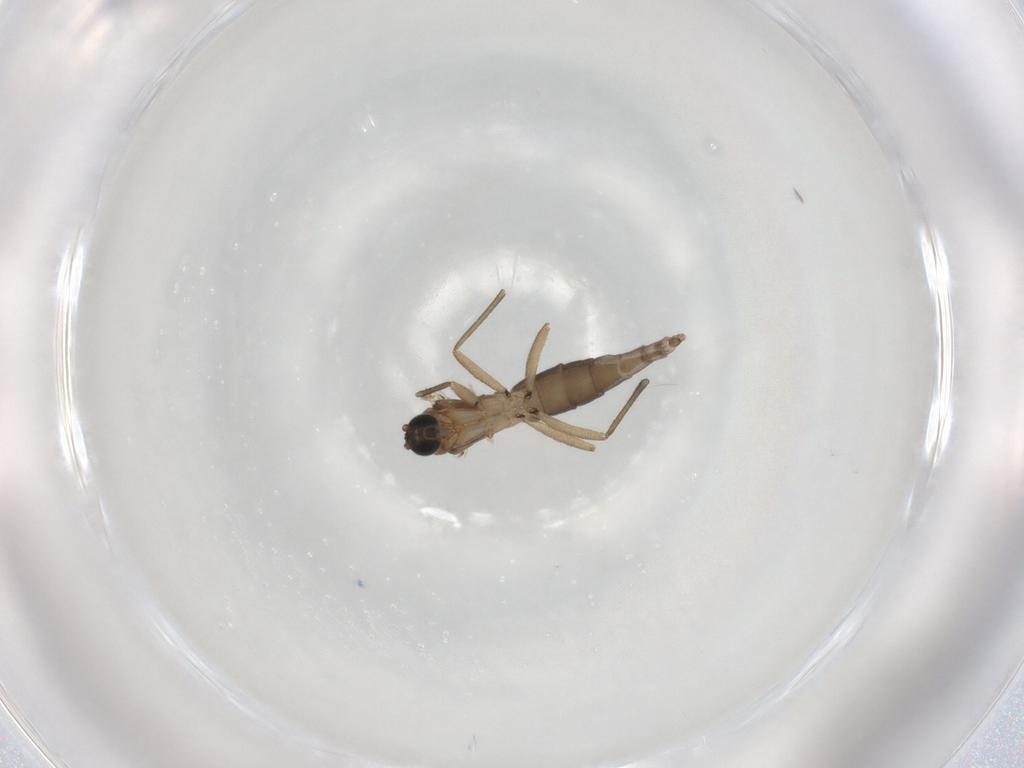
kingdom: Animalia
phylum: Arthropoda
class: Insecta
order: Diptera
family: Sciaridae
